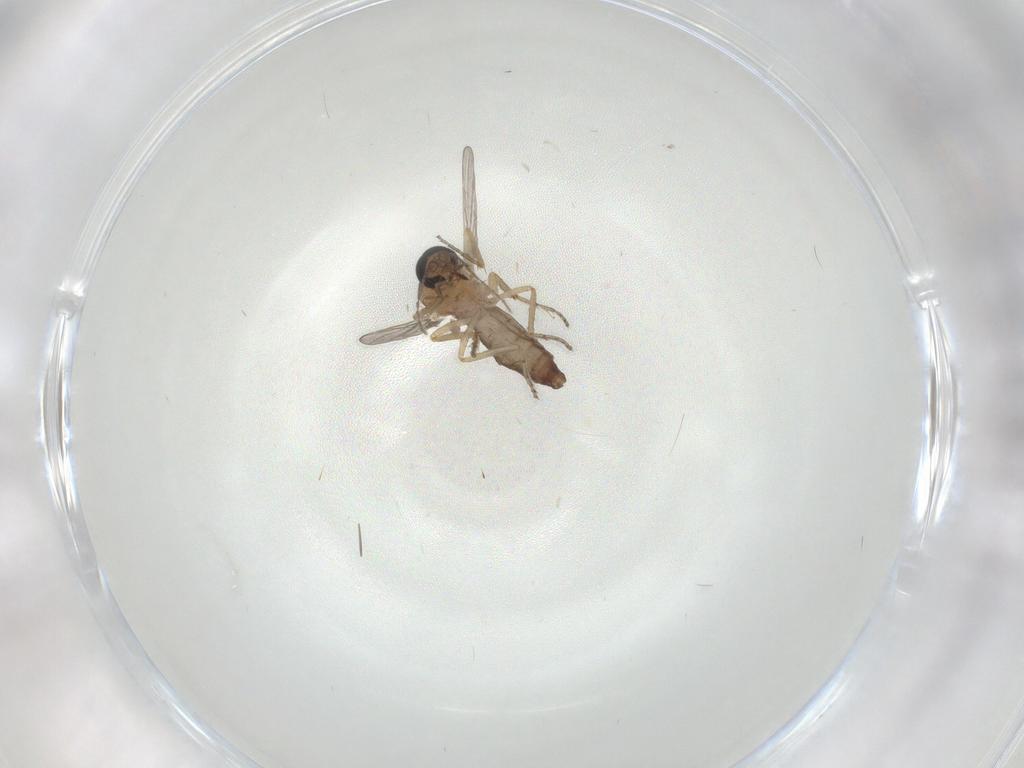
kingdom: Animalia
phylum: Arthropoda
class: Insecta
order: Diptera
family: Ceratopogonidae
